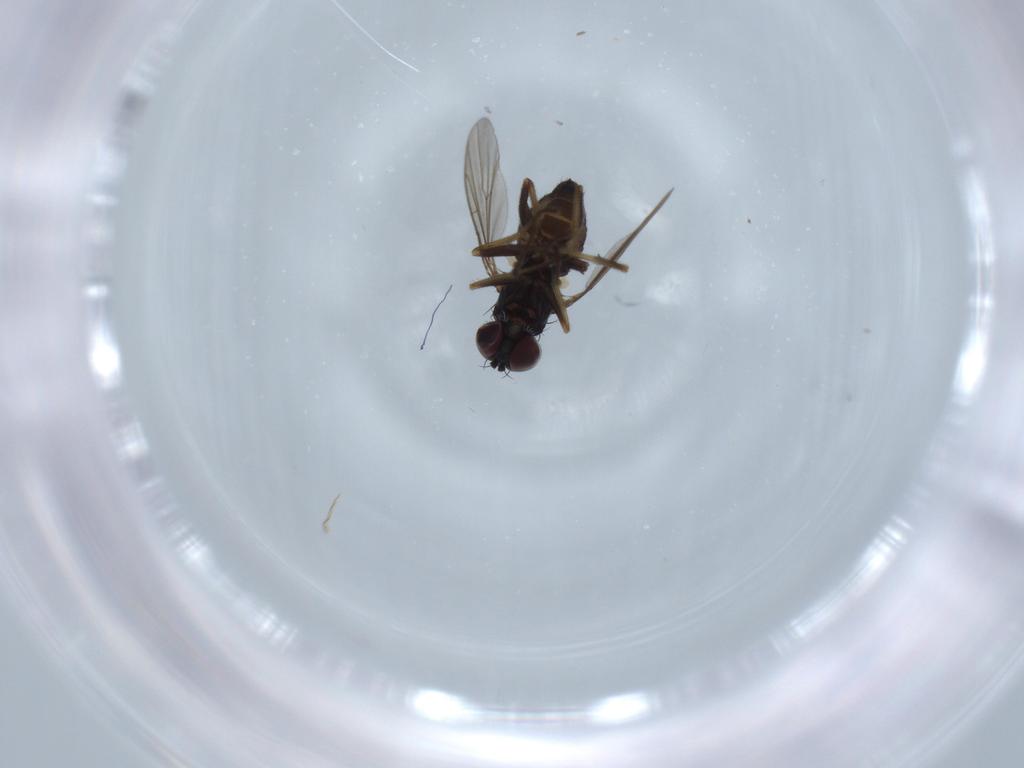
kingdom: Animalia
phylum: Arthropoda
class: Insecta
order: Diptera
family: Dolichopodidae
